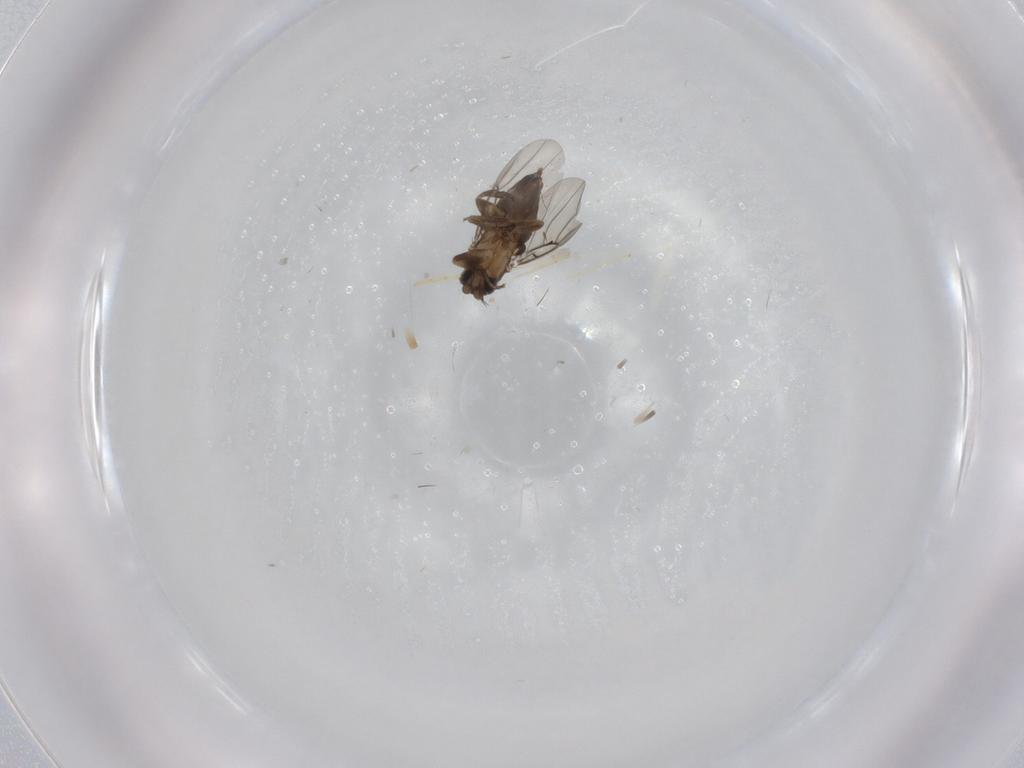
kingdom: Animalia
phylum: Arthropoda
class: Insecta
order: Diptera
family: Phoridae
